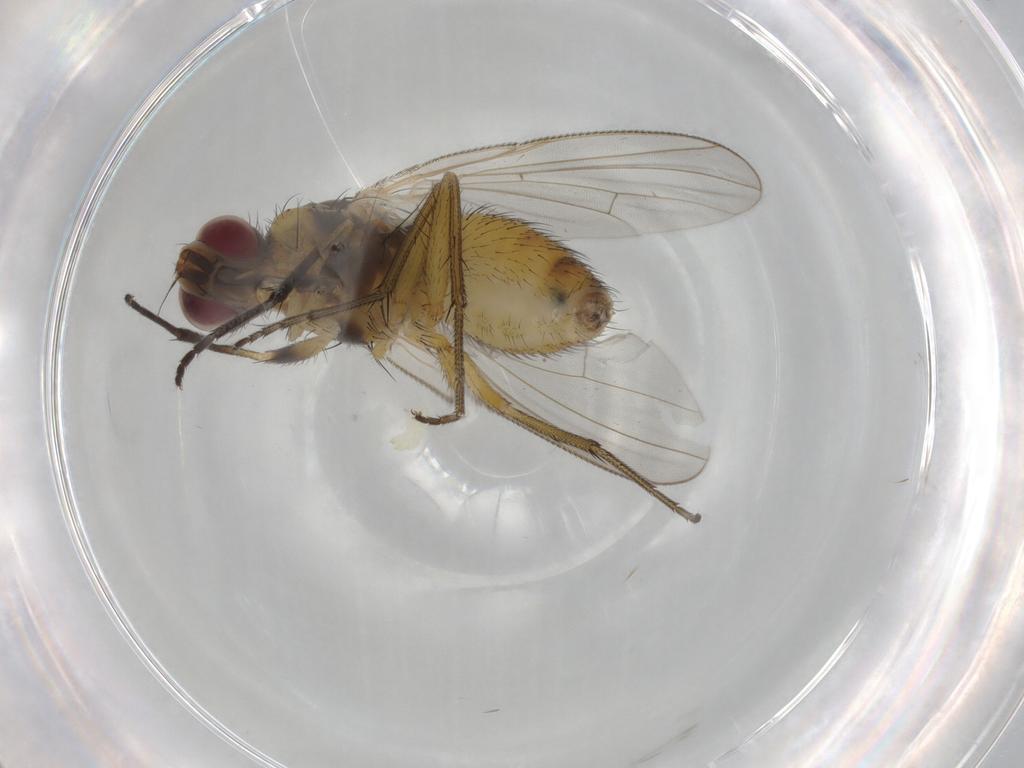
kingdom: Animalia
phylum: Arthropoda
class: Insecta
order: Diptera
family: Muscidae
